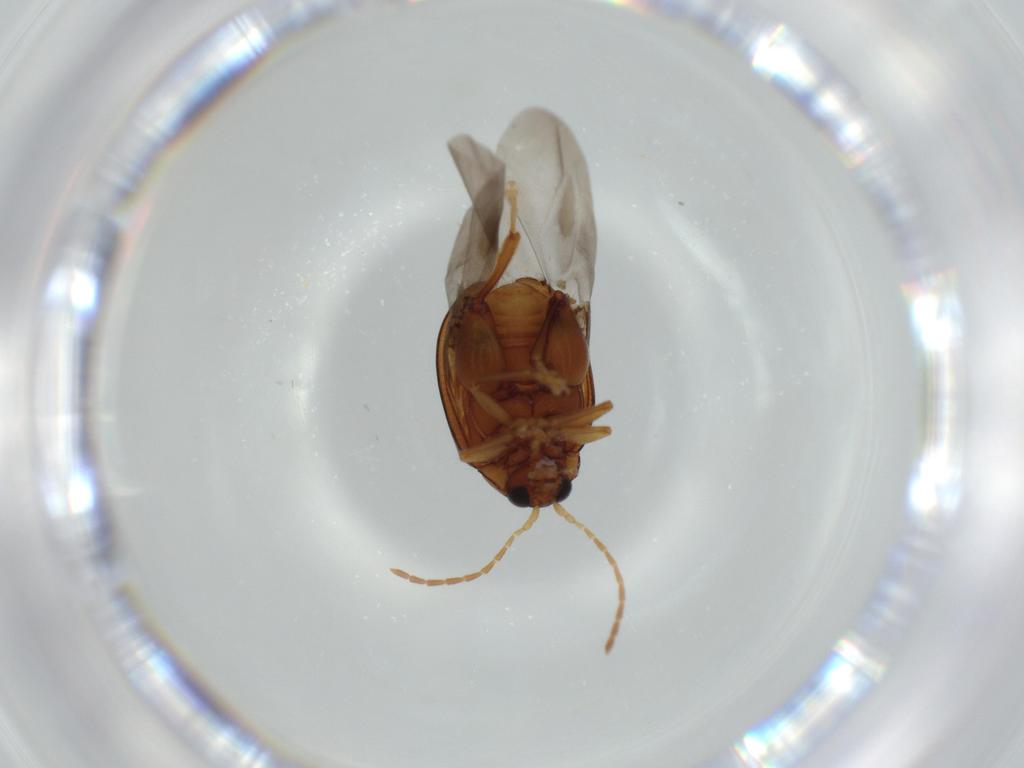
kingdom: Animalia
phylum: Arthropoda
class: Insecta
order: Coleoptera
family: Chrysomelidae
